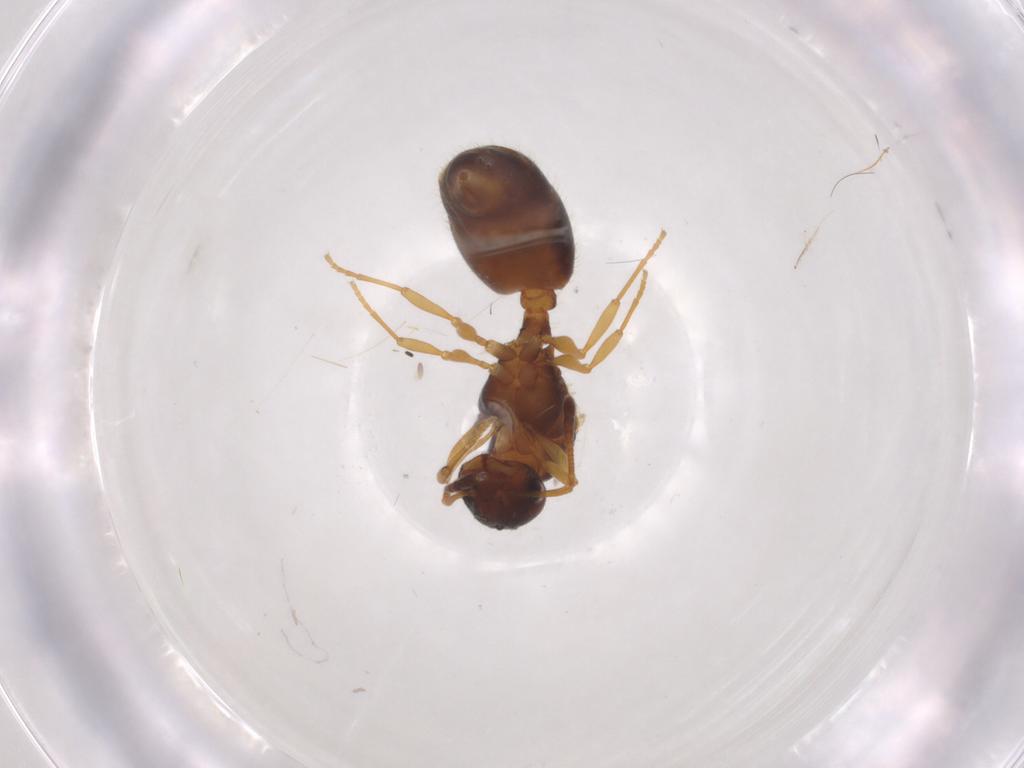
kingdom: Animalia
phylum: Arthropoda
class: Insecta
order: Hymenoptera
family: Formicidae
